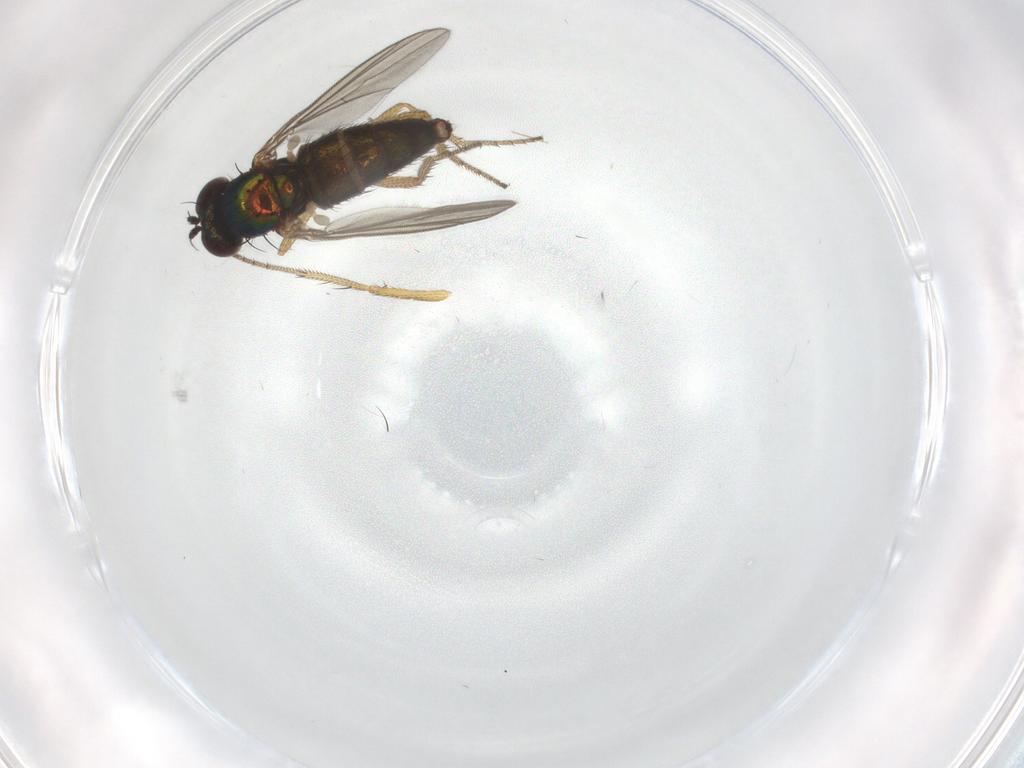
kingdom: Animalia
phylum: Arthropoda
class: Insecta
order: Diptera
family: Chironomidae
